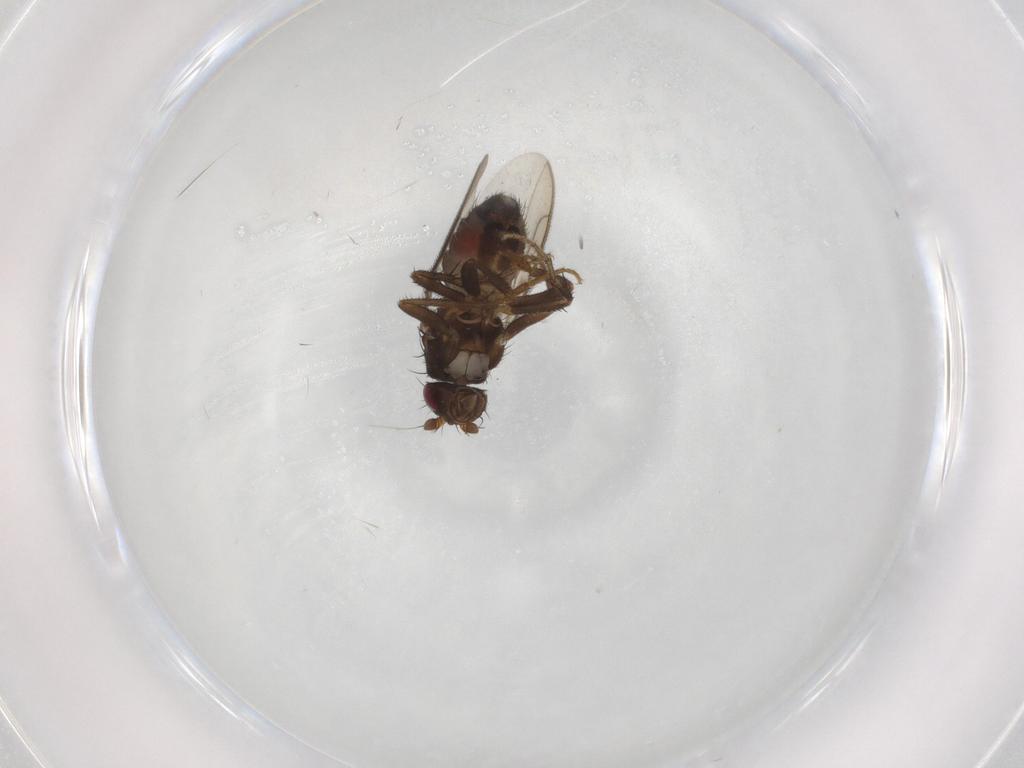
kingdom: Animalia
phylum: Arthropoda
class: Insecta
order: Diptera
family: Sphaeroceridae
